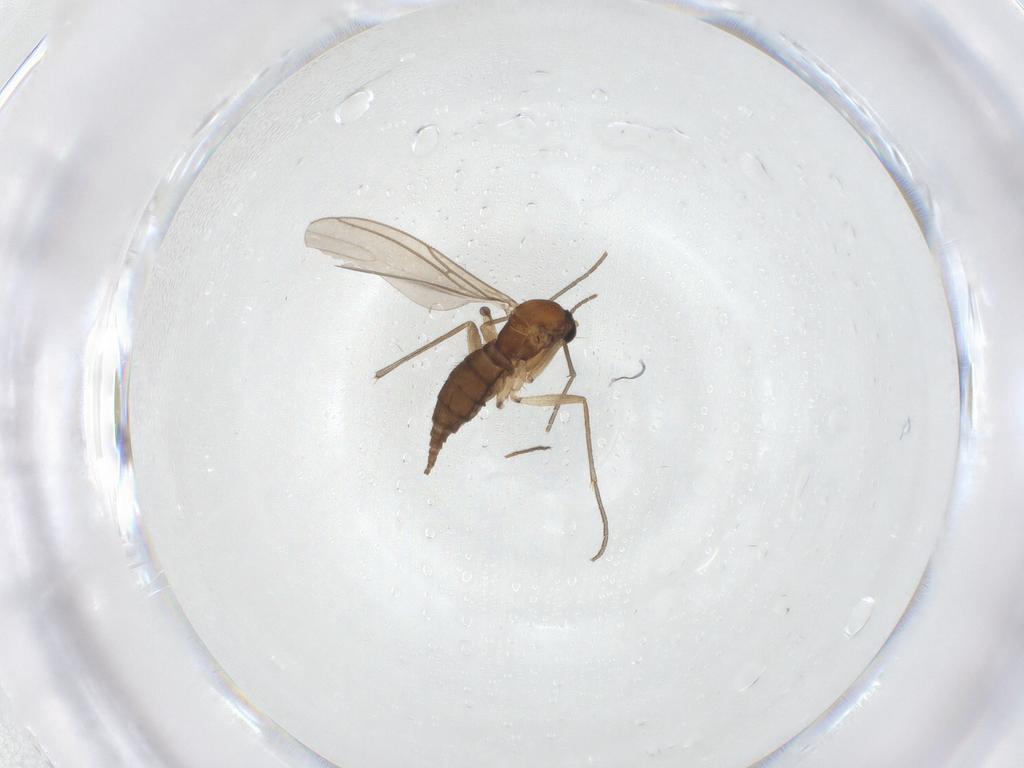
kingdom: Animalia
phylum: Arthropoda
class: Insecta
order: Diptera
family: Sciaridae
